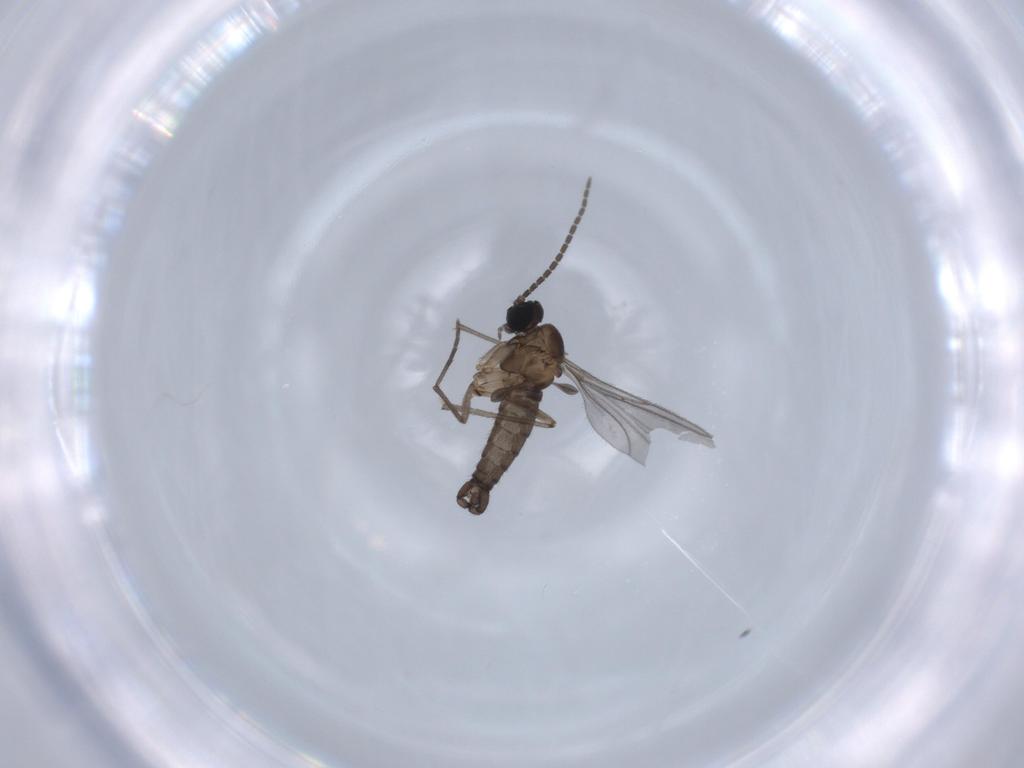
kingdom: Animalia
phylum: Arthropoda
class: Insecta
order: Diptera
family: Sciaridae
